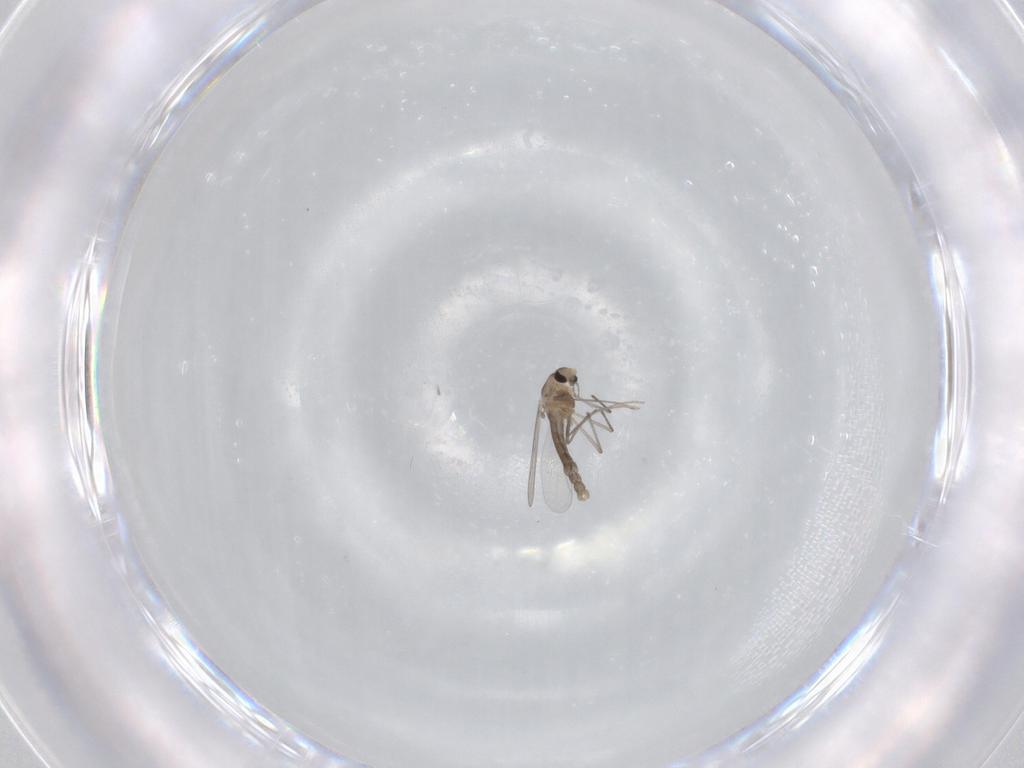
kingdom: Animalia
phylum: Arthropoda
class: Insecta
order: Diptera
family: Chironomidae
